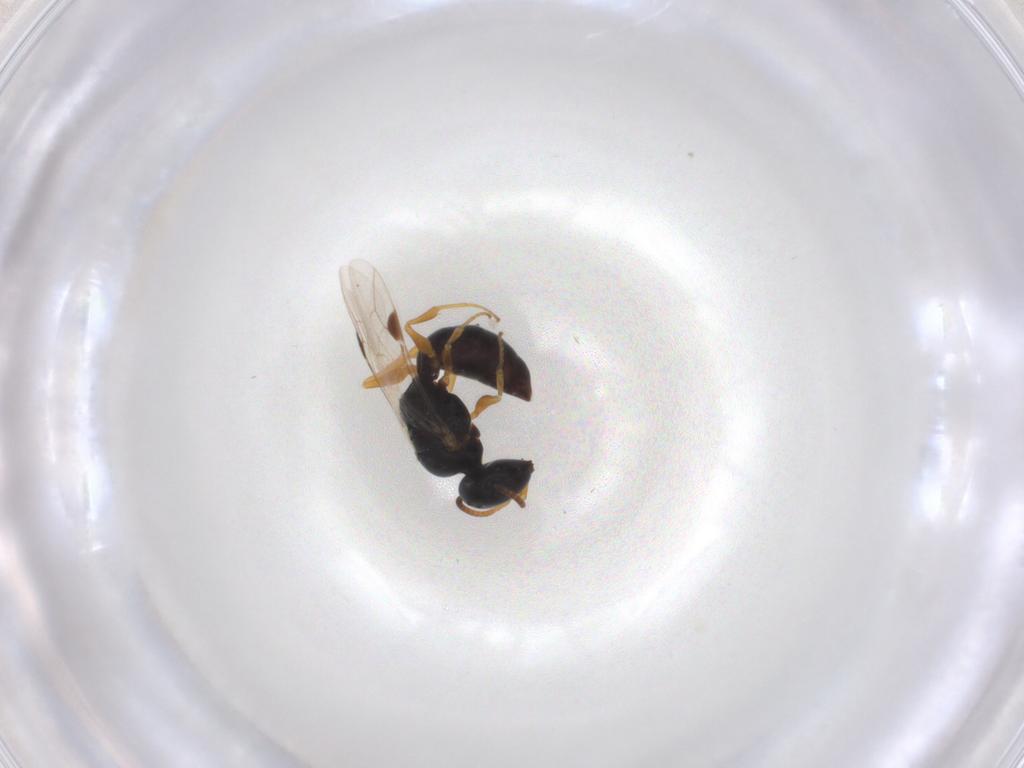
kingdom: Animalia
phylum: Arthropoda
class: Insecta
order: Hymenoptera
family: Pemphredonidae
